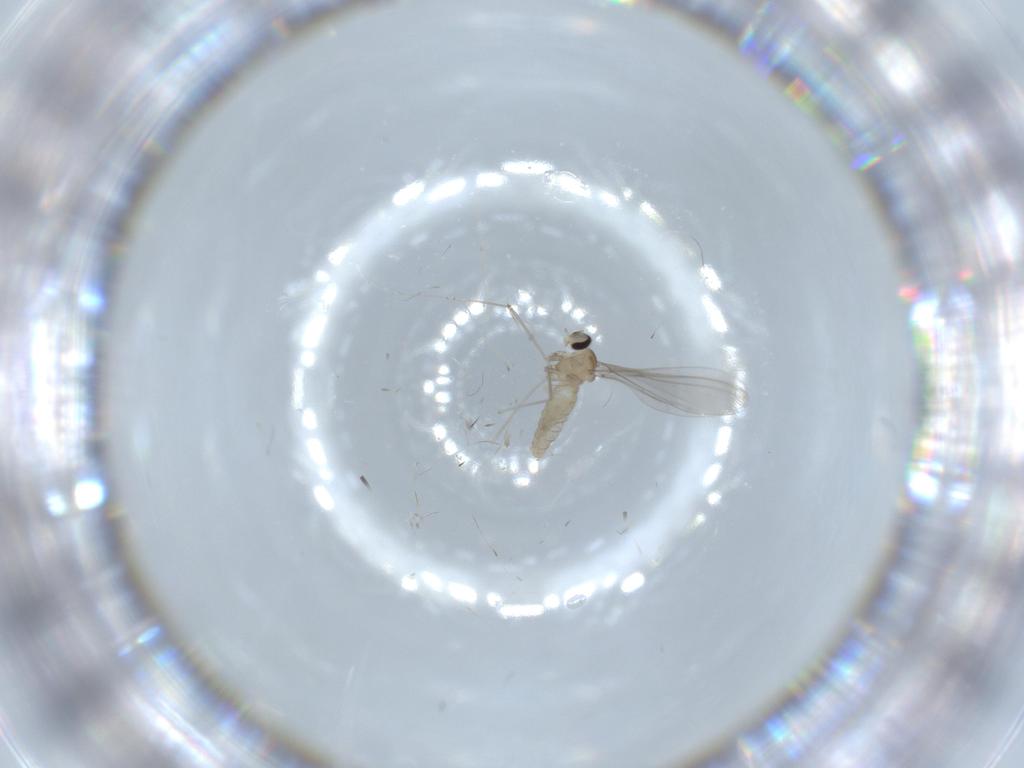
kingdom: Animalia
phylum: Arthropoda
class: Insecta
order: Diptera
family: Cecidomyiidae
